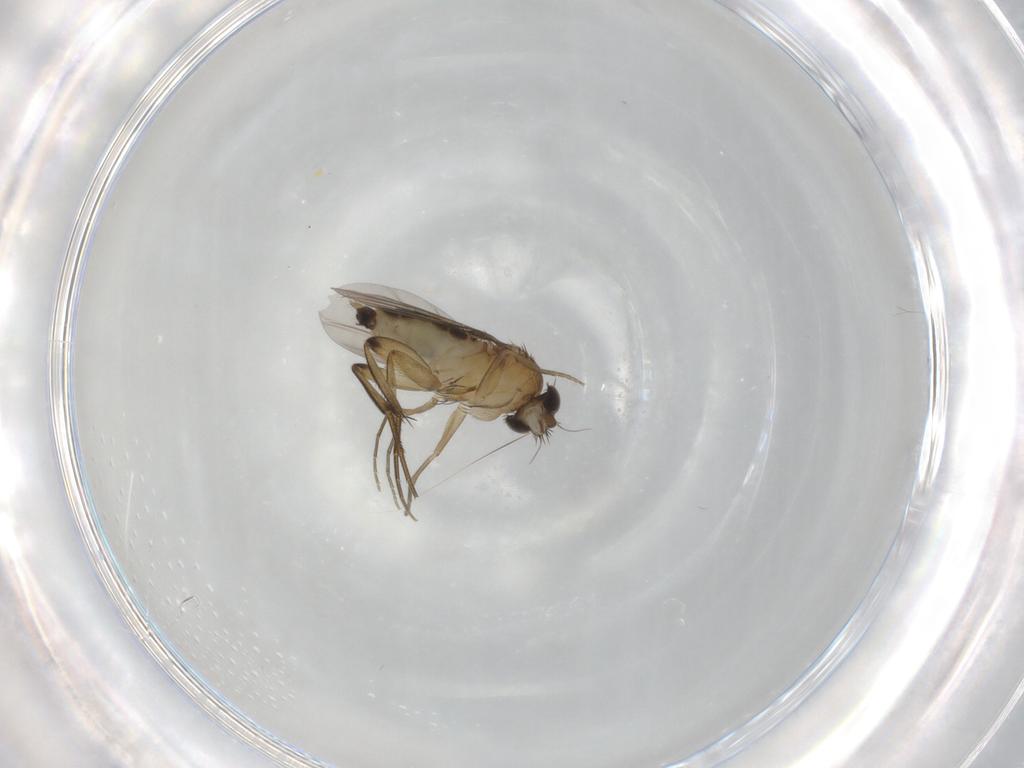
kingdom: Animalia
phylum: Arthropoda
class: Insecta
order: Diptera
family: Phoridae
